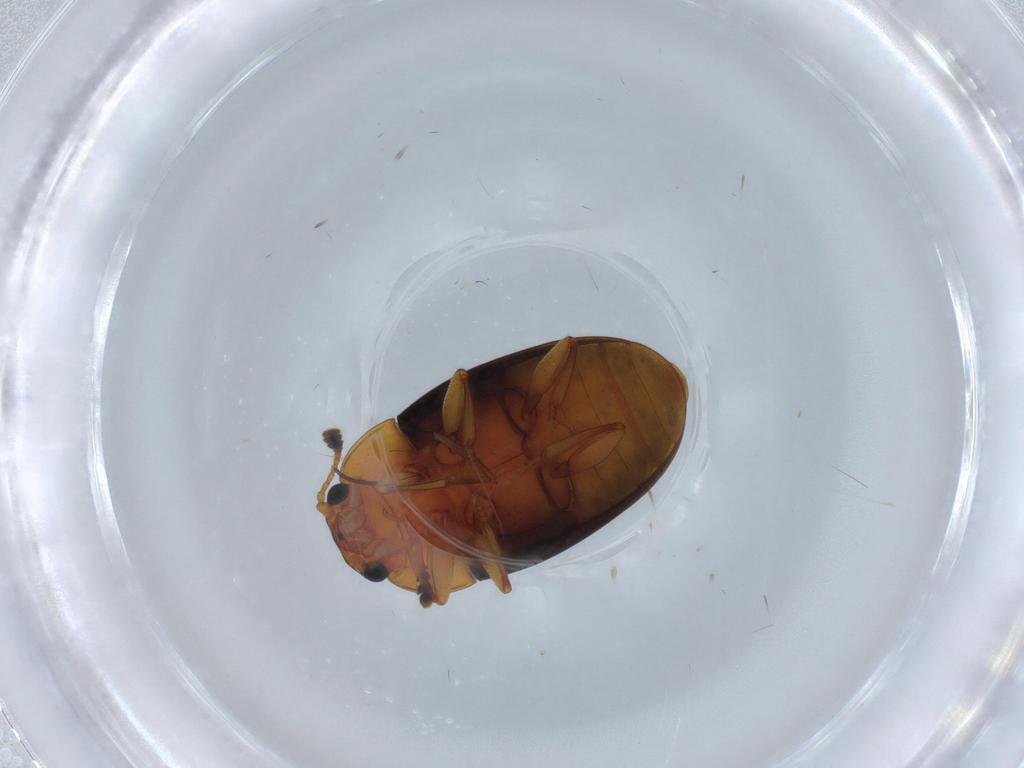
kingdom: Animalia
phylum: Arthropoda
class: Insecta
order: Coleoptera
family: Erotylidae
